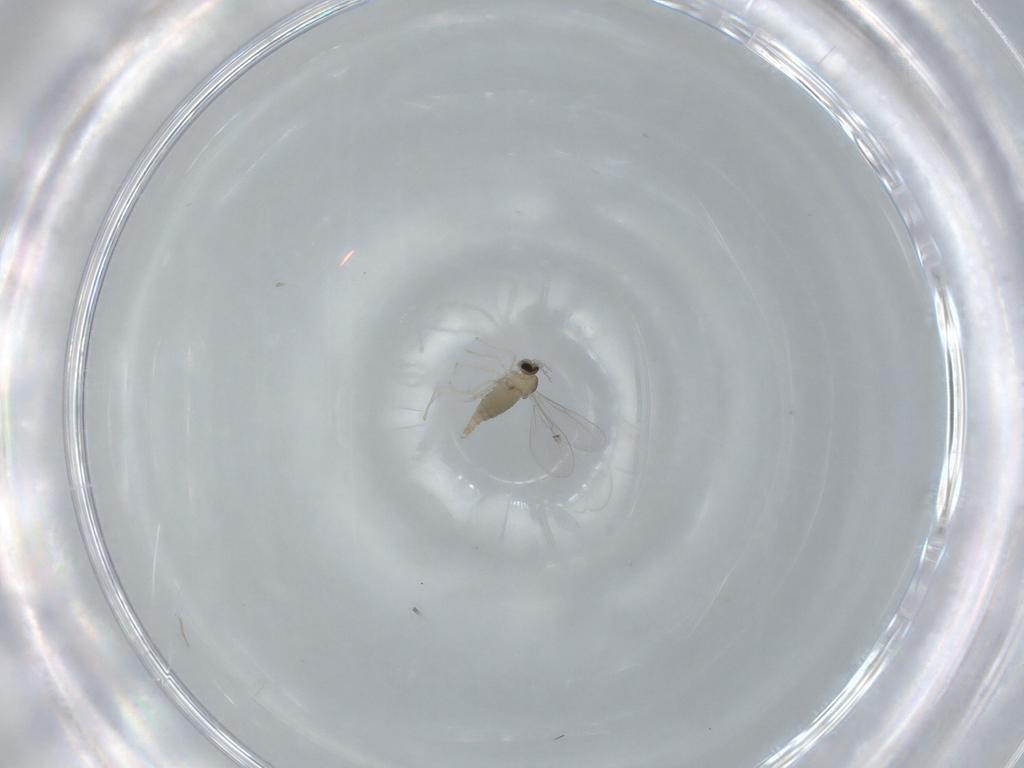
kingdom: Animalia
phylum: Arthropoda
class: Insecta
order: Diptera
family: Cecidomyiidae
